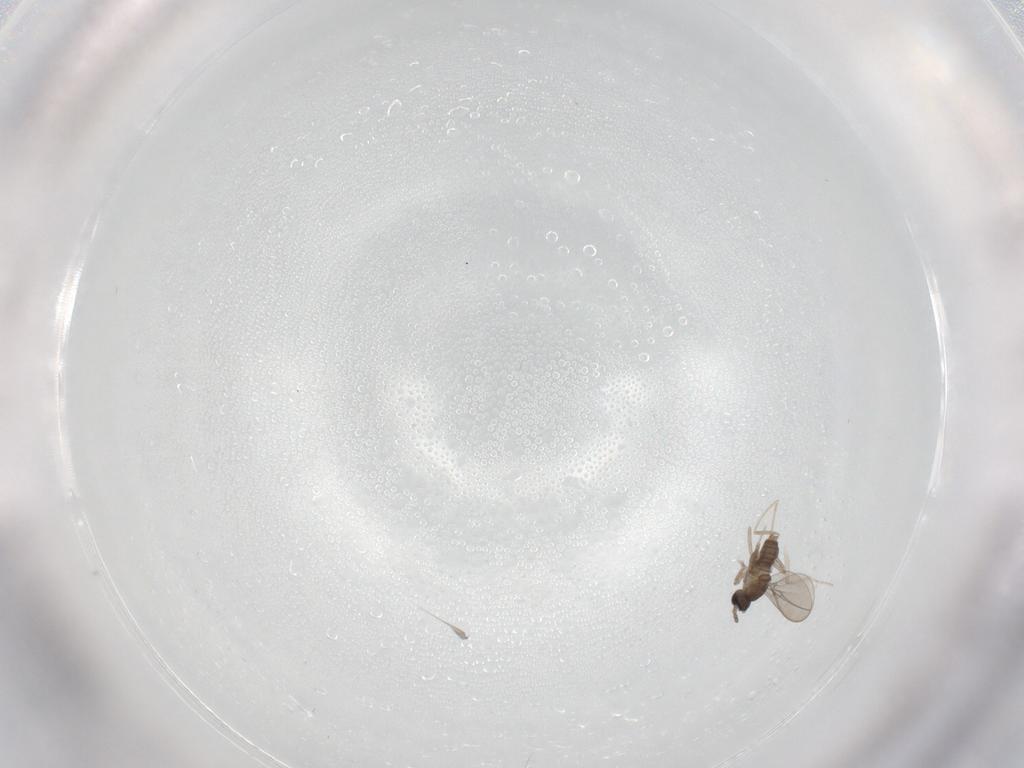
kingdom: Animalia
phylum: Arthropoda
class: Insecta
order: Diptera
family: Cecidomyiidae
